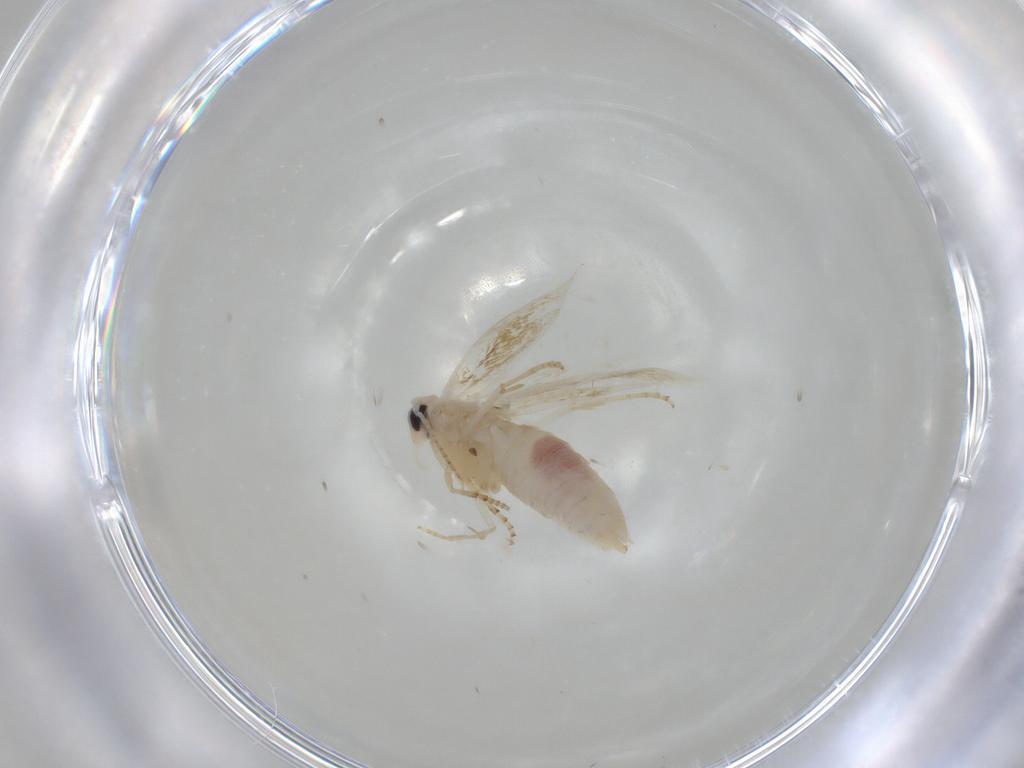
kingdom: Animalia
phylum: Arthropoda
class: Insecta
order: Lepidoptera
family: Bucculatricidae
